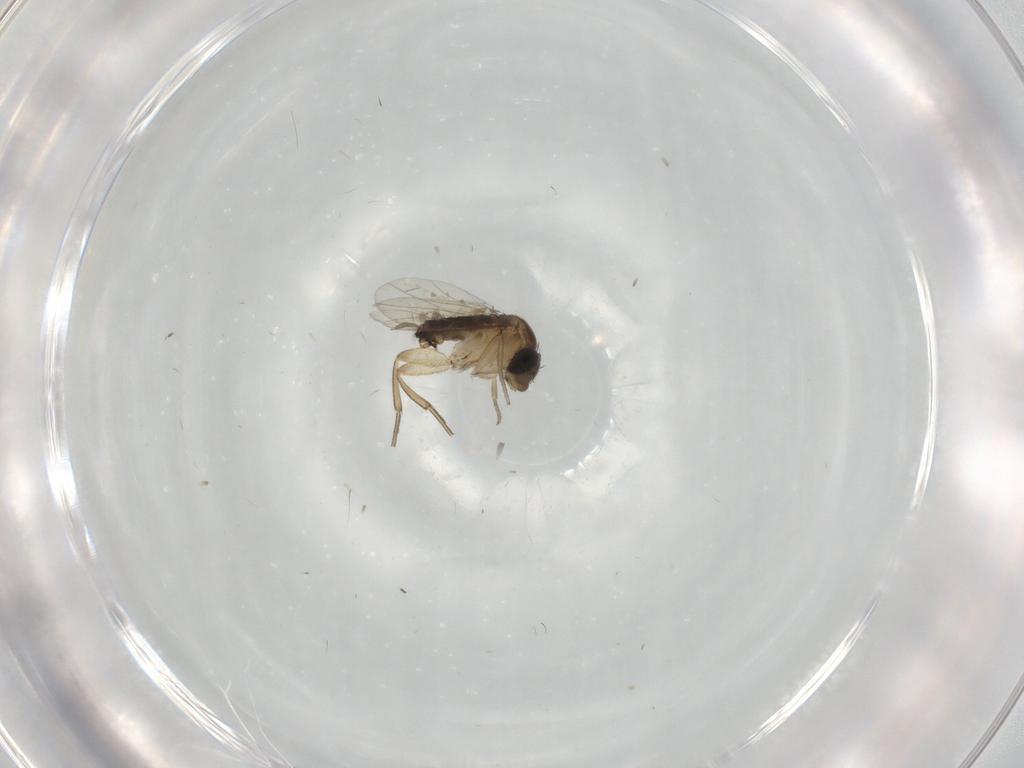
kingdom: Animalia
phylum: Arthropoda
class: Insecta
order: Diptera
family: Phoridae
